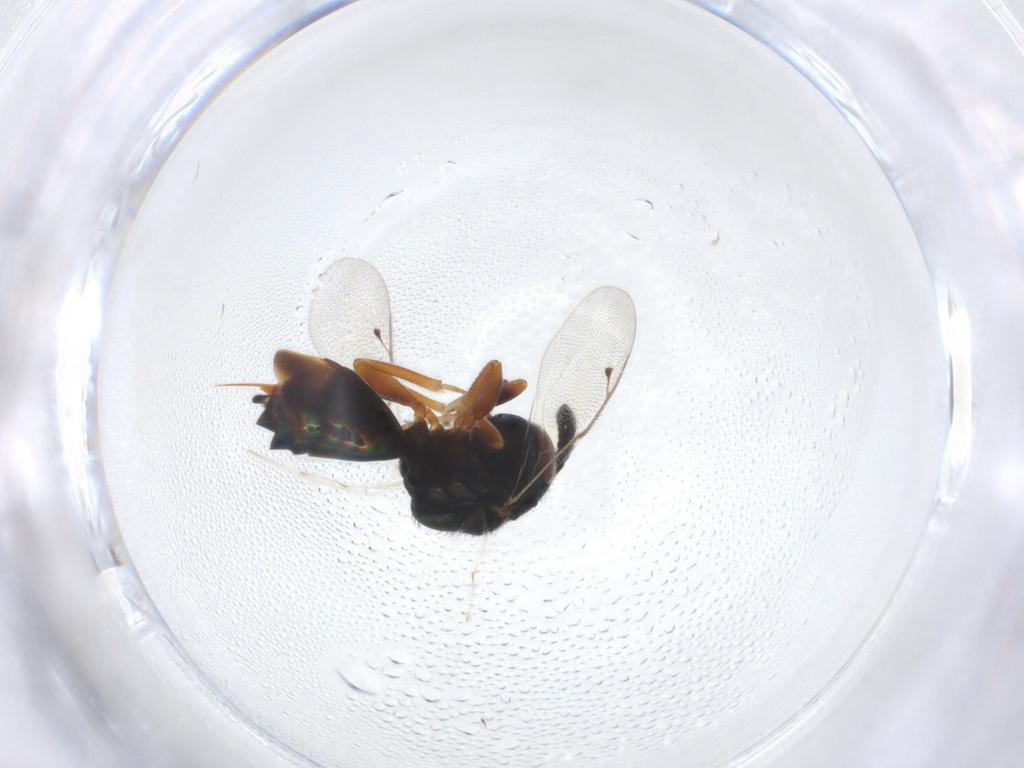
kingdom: Animalia
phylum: Arthropoda
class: Insecta
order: Hymenoptera
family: Agaonidae
